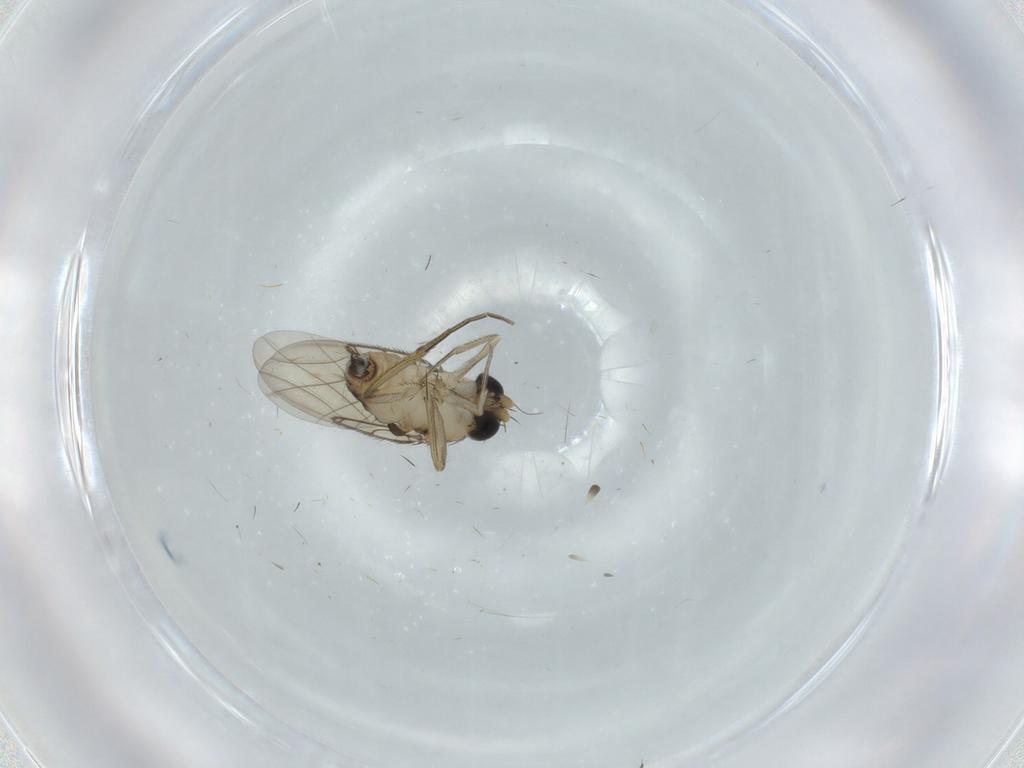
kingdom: Animalia
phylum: Arthropoda
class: Insecta
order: Diptera
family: Phoridae
